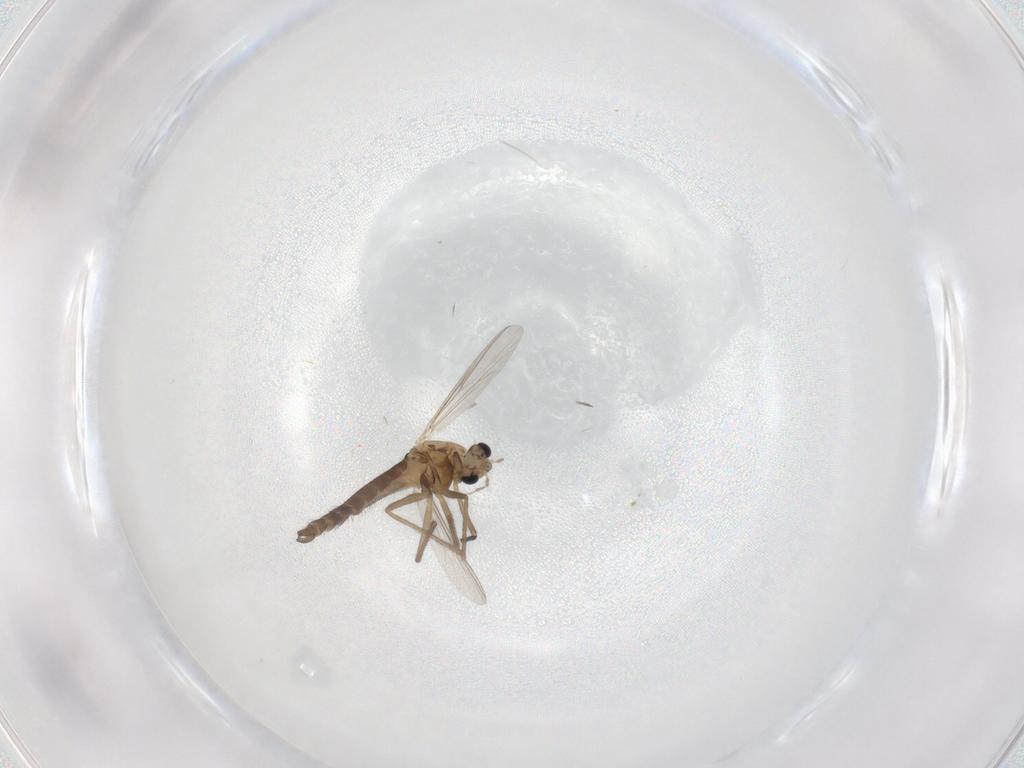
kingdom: Animalia
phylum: Arthropoda
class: Insecta
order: Diptera
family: Chironomidae
